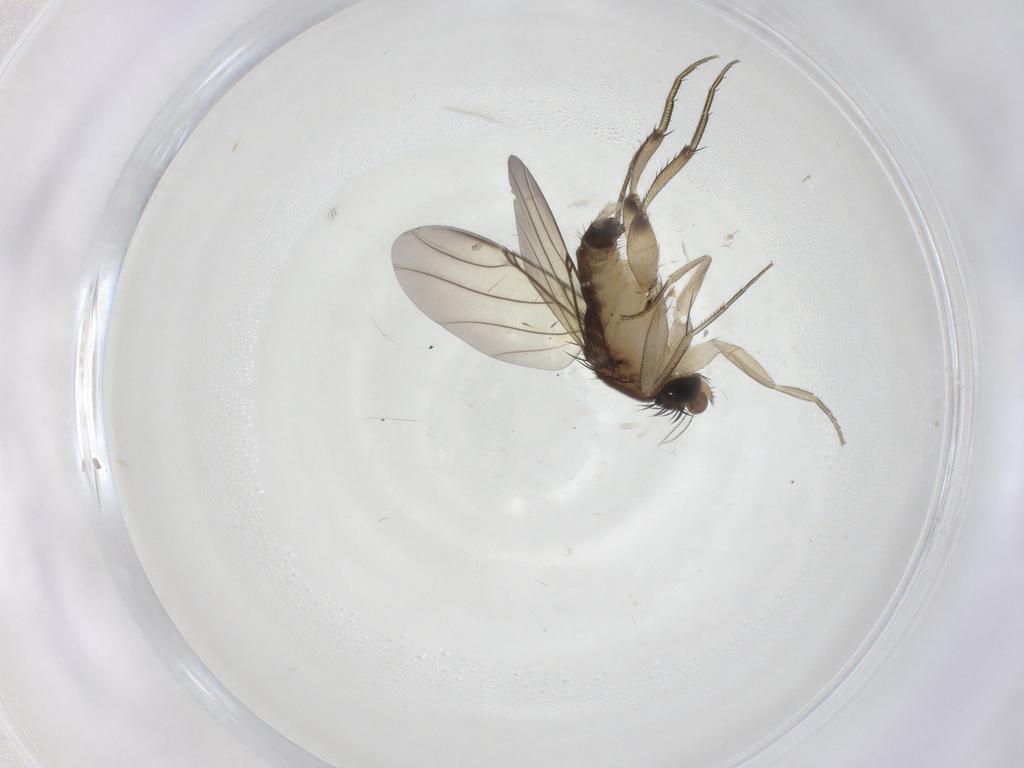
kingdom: Animalia
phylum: Arthropoda
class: Insecta
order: Diptera
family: Phoridae
